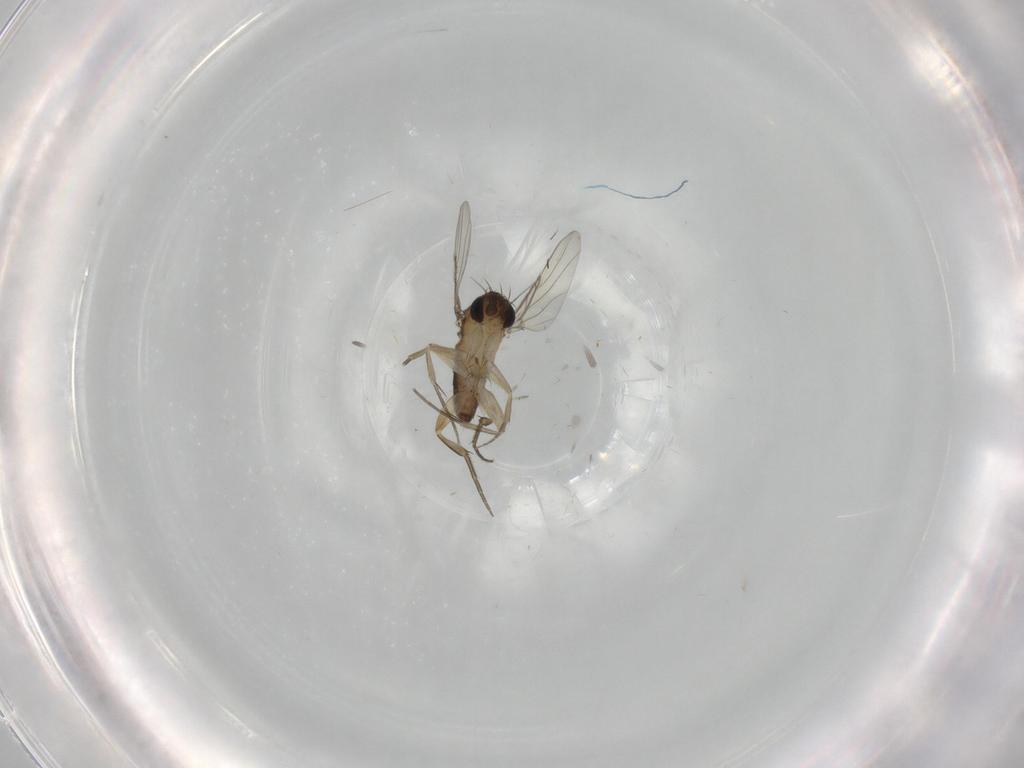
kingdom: Animalia
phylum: Arthropoda
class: Insecta
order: Diptera
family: Phoridae
